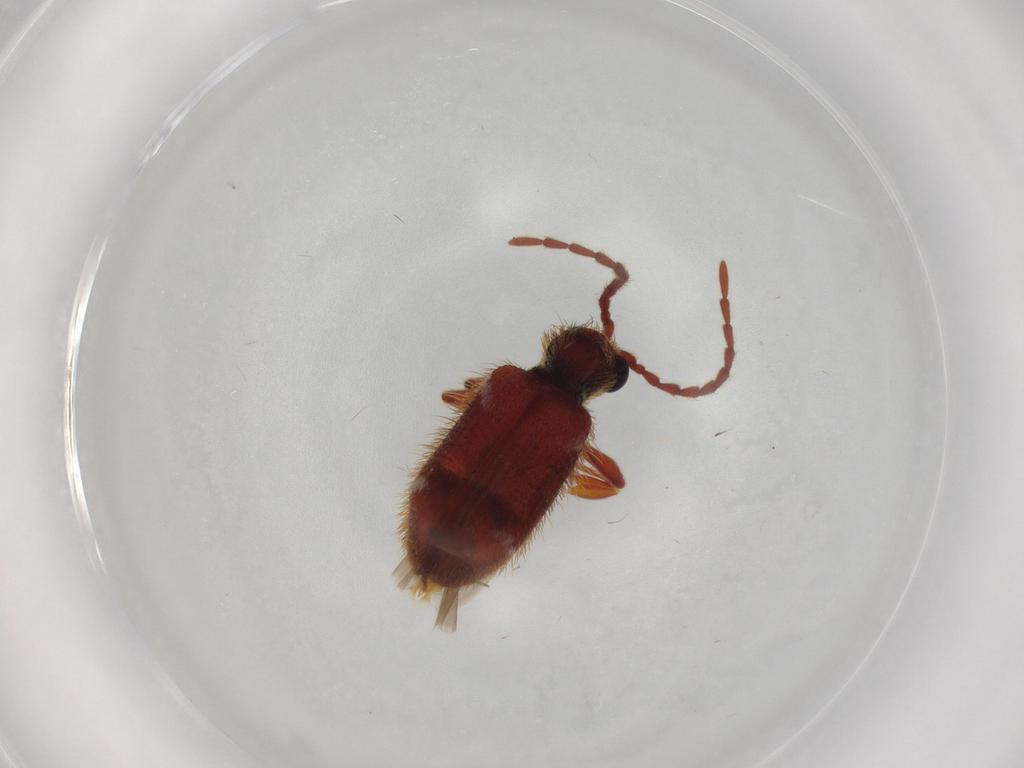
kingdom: Animalia
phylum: Arthropoda
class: Insecta
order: Coleoptera
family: Ptinidae
